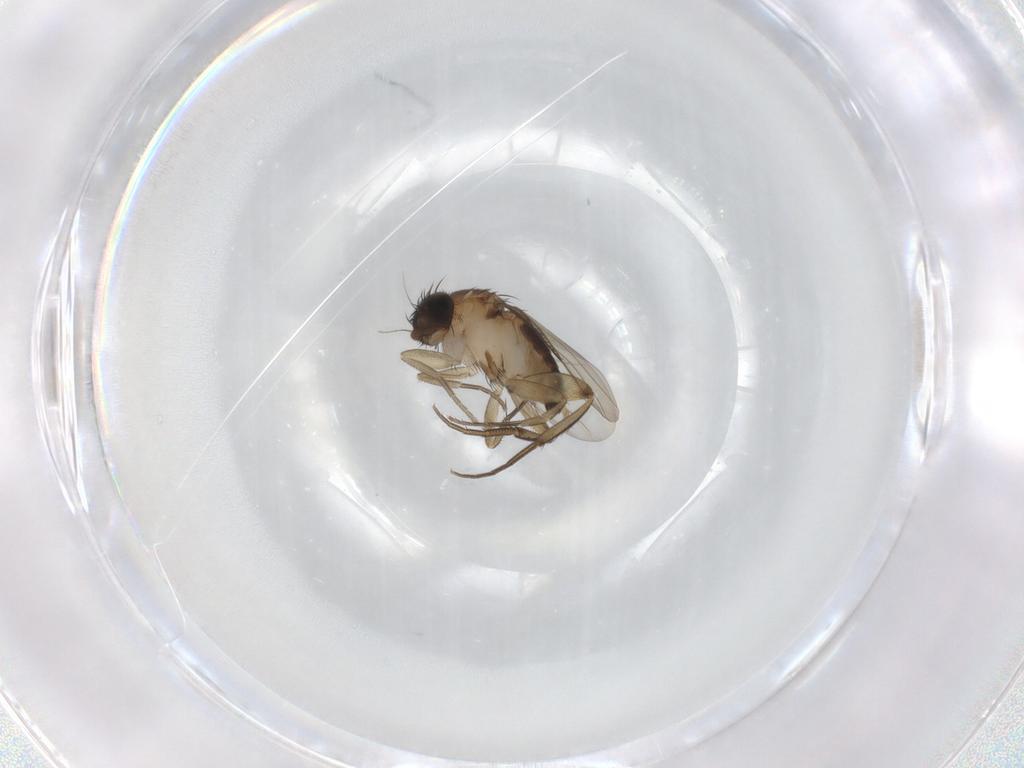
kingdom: Animalia
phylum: Arthropoda
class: Insecta
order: Diptera
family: Phoridae
